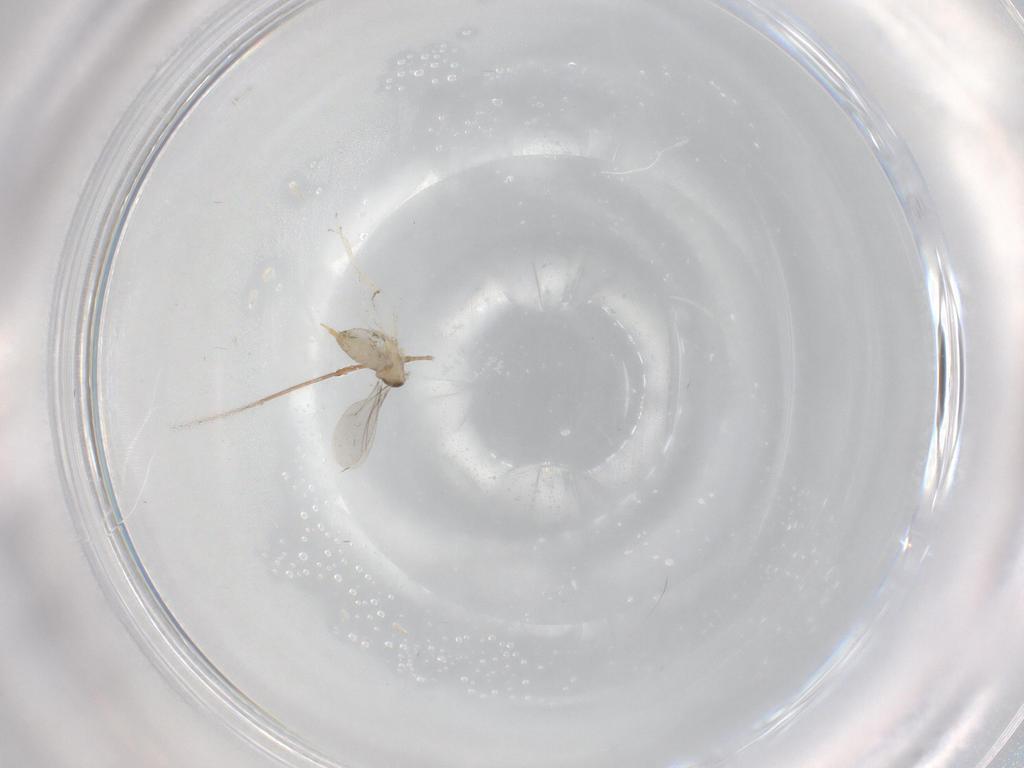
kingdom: Animalia
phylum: Arthropoda
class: Insecta
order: Diptera
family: Cecidomyiidae
